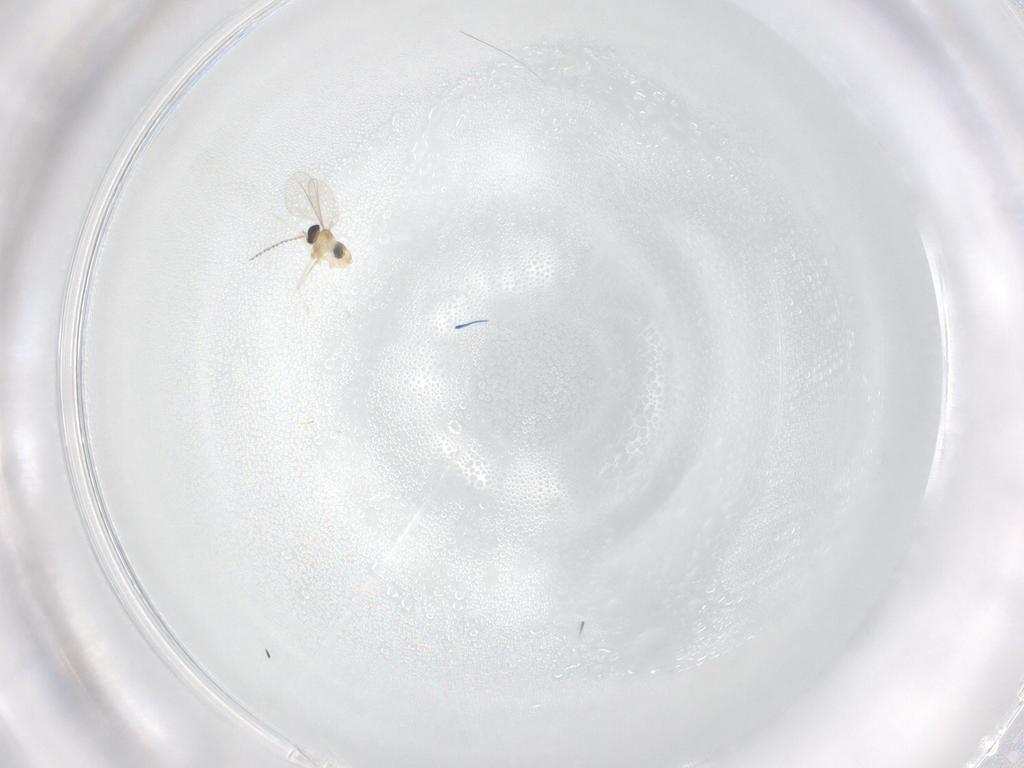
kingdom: Animalia
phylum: Arthropoda
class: Insecta
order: Diptera
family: Cecidomyiidae
